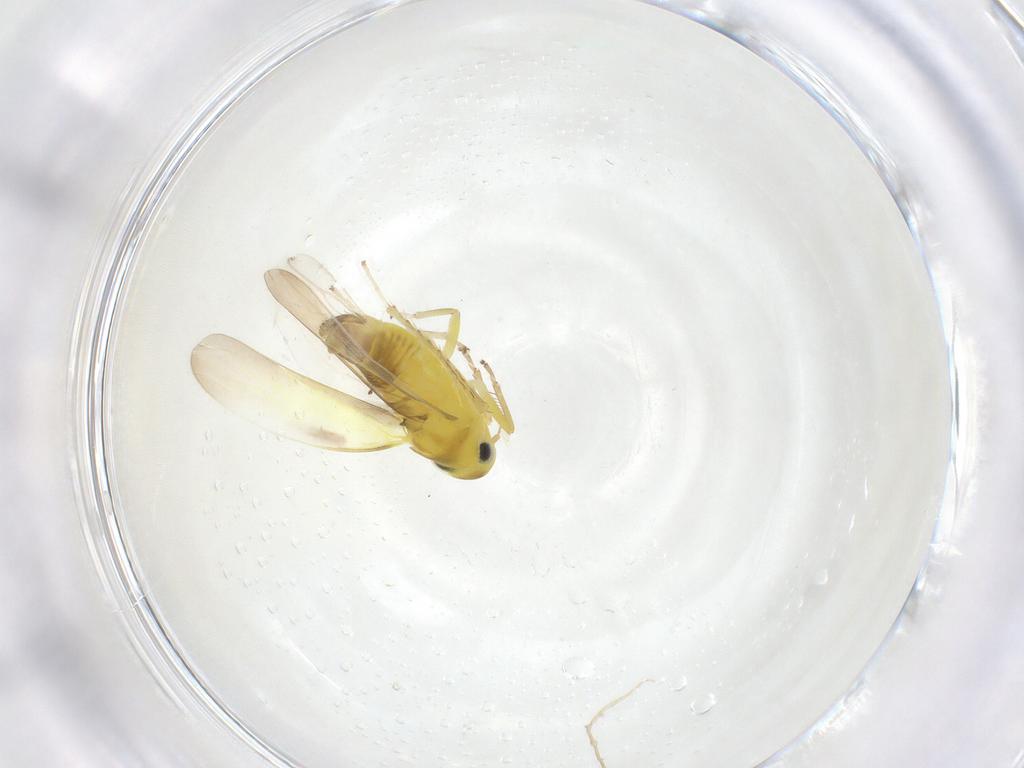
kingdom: Animalia
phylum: Arthropoda
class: Insecta
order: Hemiptera
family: Cicadellidae
